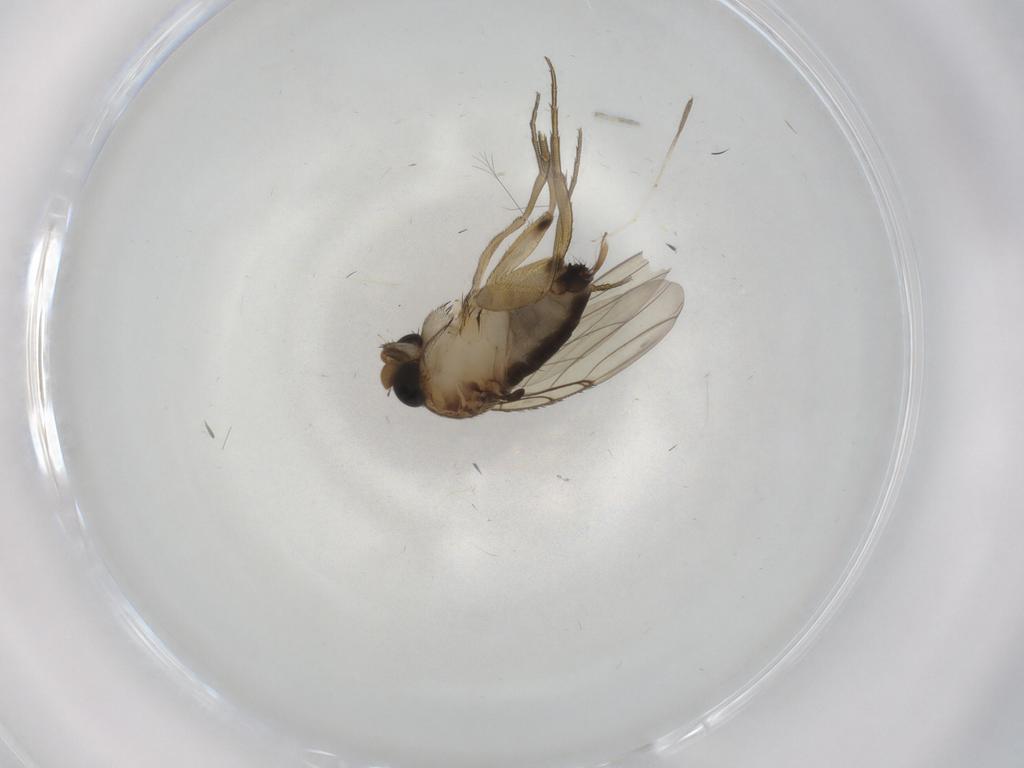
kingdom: Animalia
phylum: Arthropoda
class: Insecta
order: Diptera
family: Phoridae
